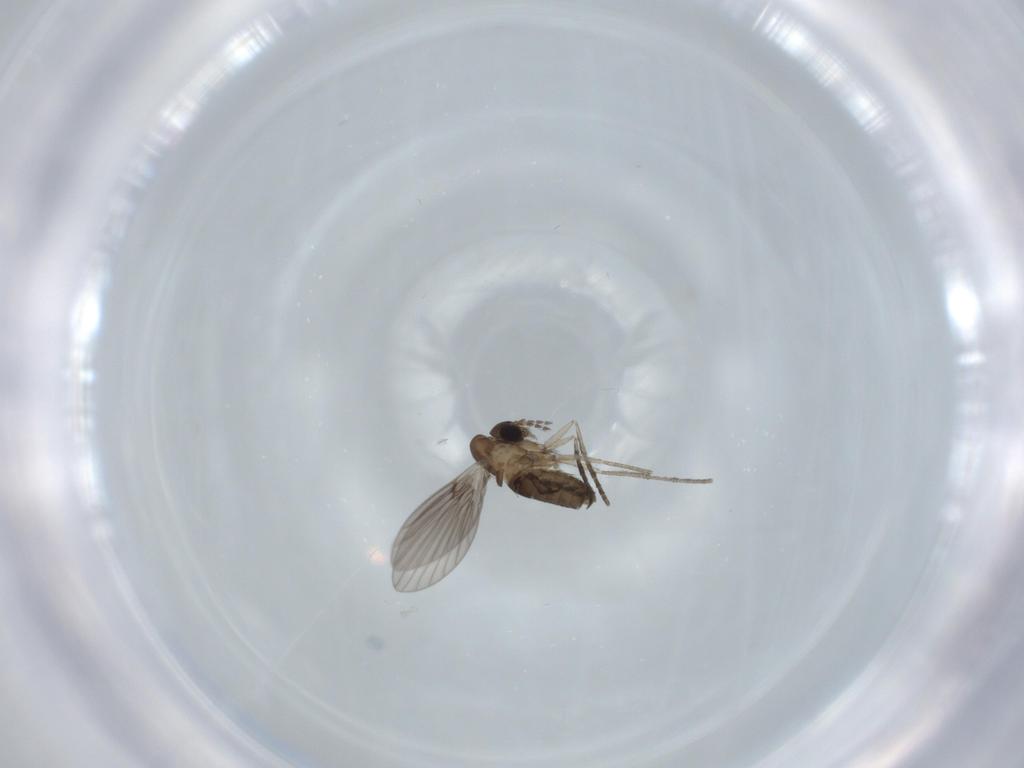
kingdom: Animalia
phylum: Arthropoda
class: Insecta
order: Diptera
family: Psychodidae
